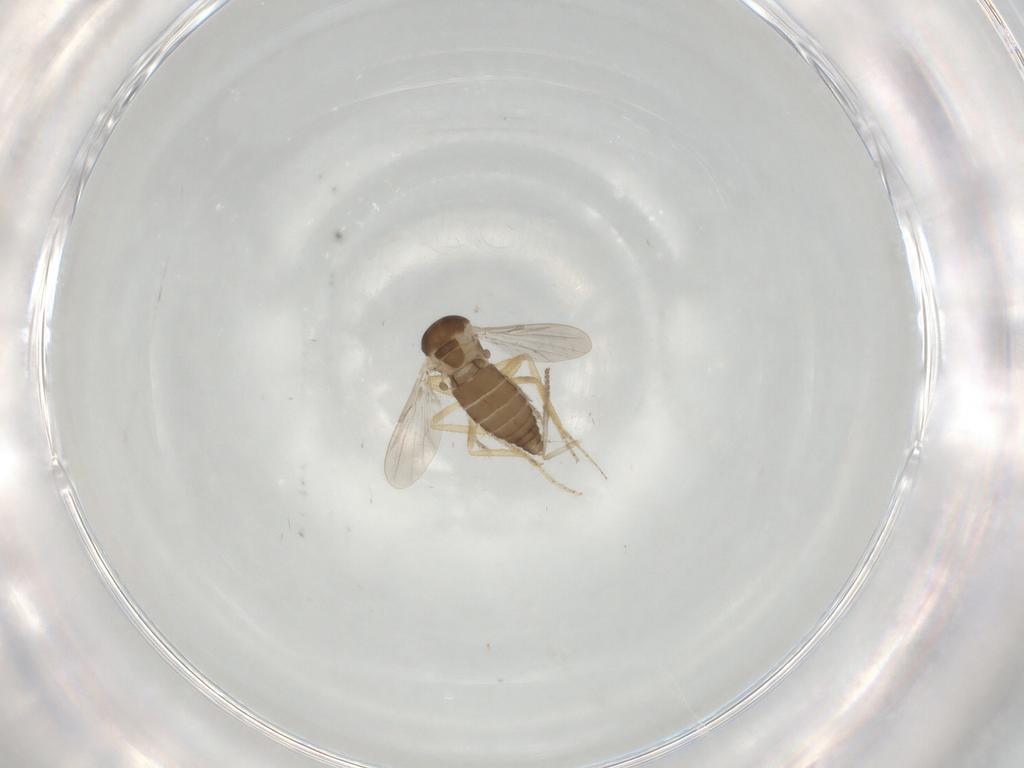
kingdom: Animalia
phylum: Arthropoda
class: Insecta
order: Diptera
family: Ceratopogonidae
